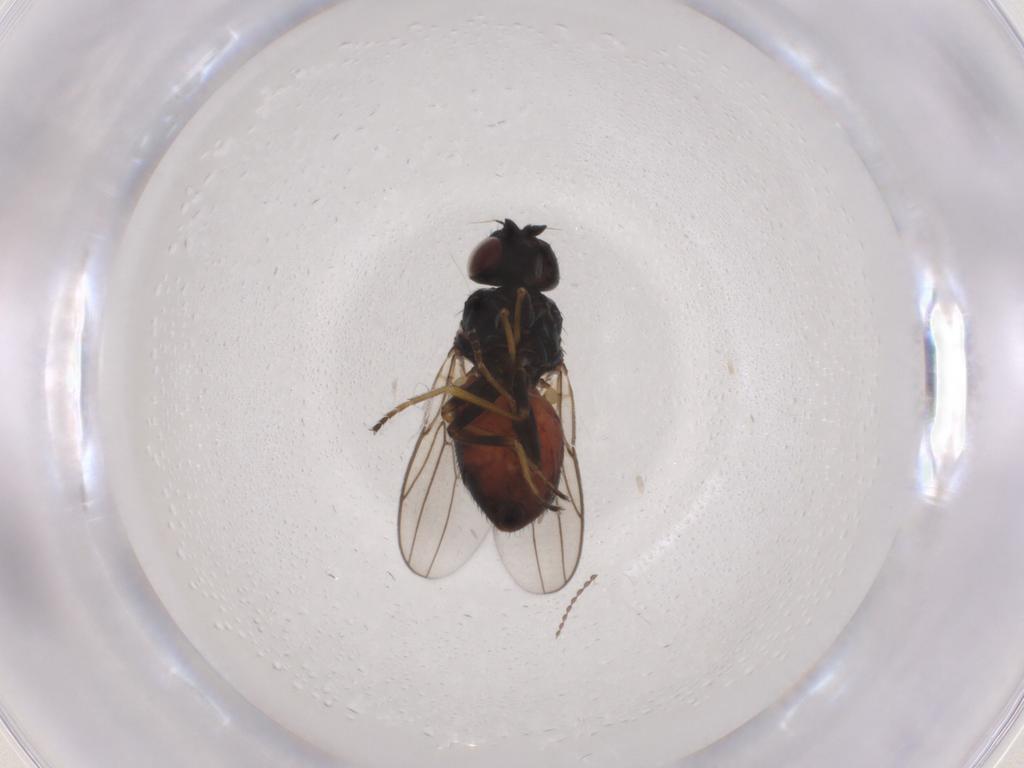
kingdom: Animalia
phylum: Arthropoda
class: Insecta
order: Diptera
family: Chloropidae
